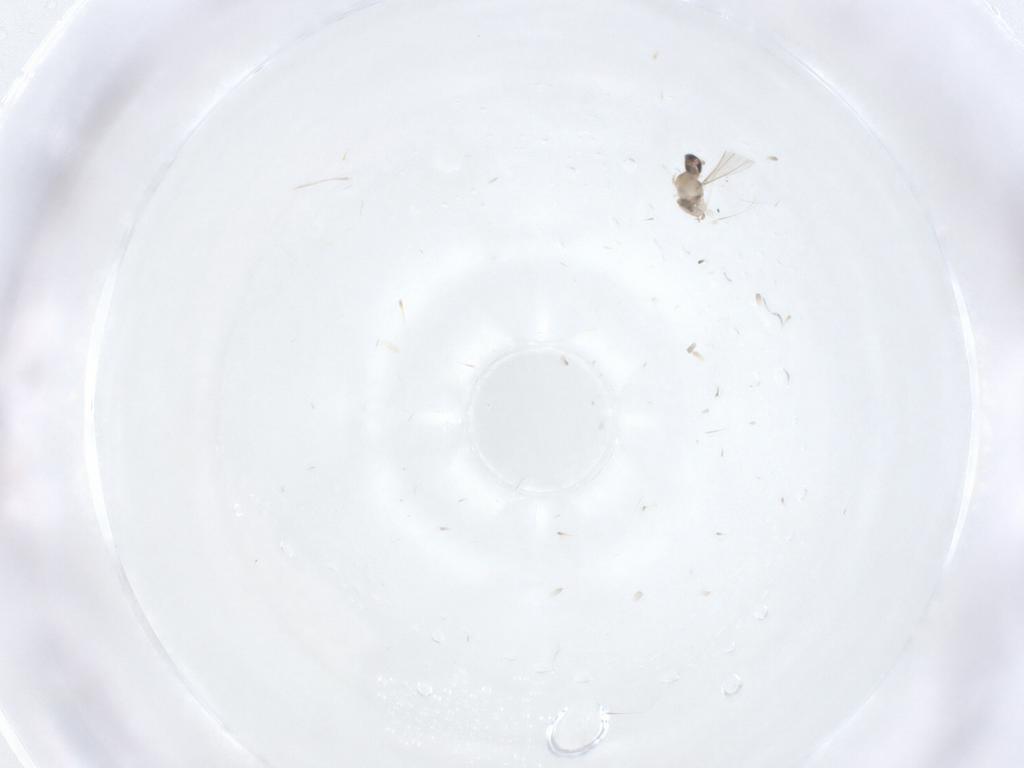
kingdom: Animalia
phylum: Arthropoda
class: Insecta
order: Diptera
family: Cecidomyiidae
